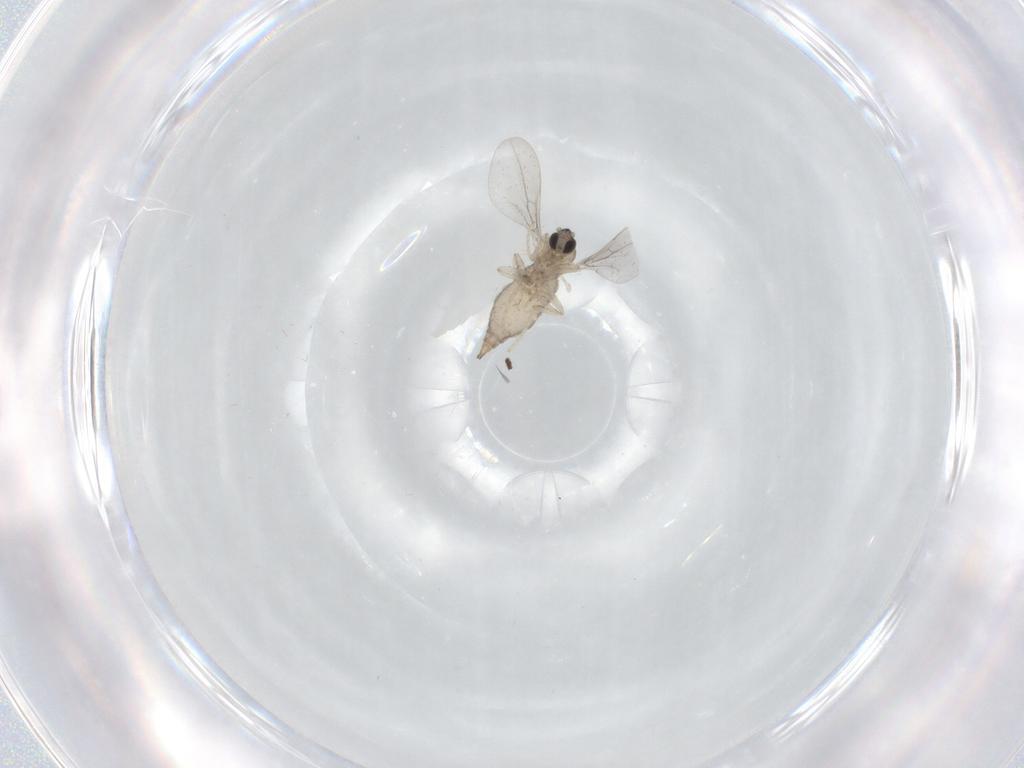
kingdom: Animalia
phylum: Arthropoda
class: Insecta
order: Diptera
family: Cecidomyiidae
